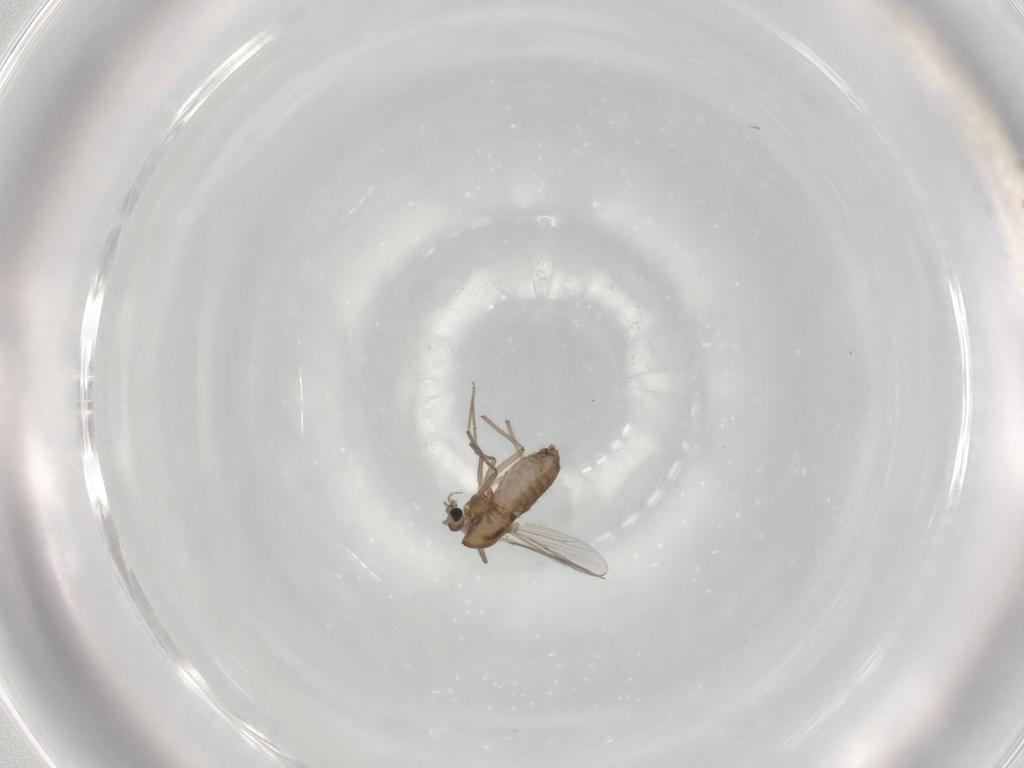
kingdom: Animalia
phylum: Arthropoda
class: Insecta
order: Diptera
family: Chironomidae
